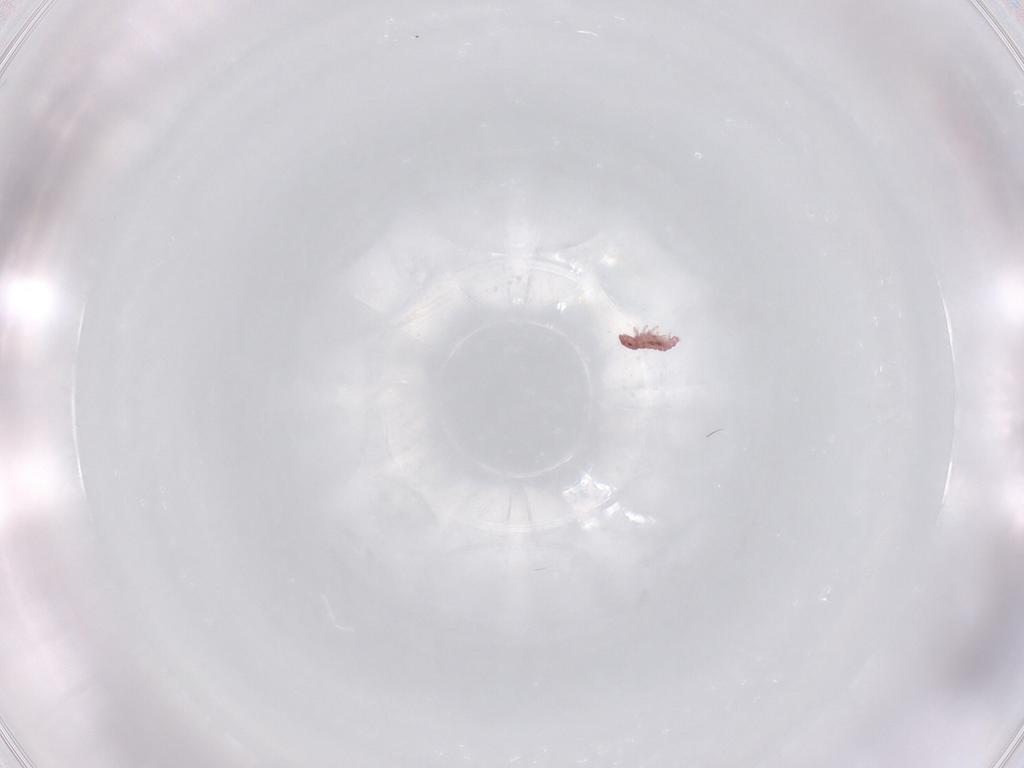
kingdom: Animalia
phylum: Arthropoda
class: Collembola
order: Poduromorpha
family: Hypogastruridae
